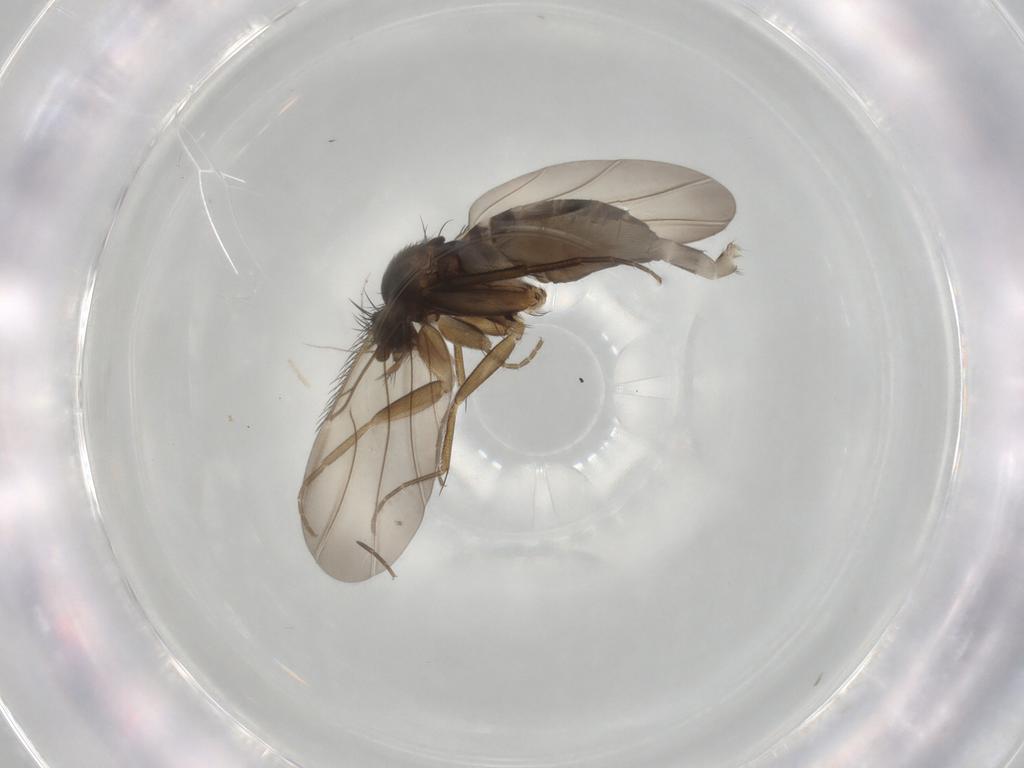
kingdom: Animalia
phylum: Arthropoda
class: Insecta
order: Diptera
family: Phoridae
